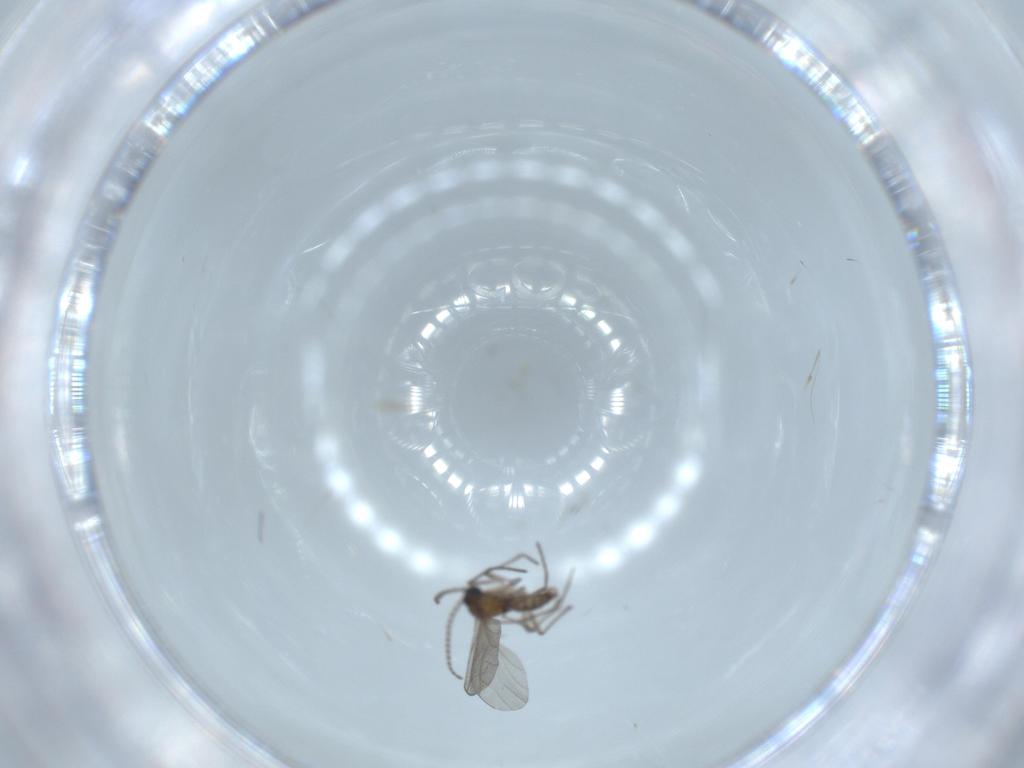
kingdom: Animalia
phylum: Arthropoda
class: Insecta
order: Diptera
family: Sciaridae
